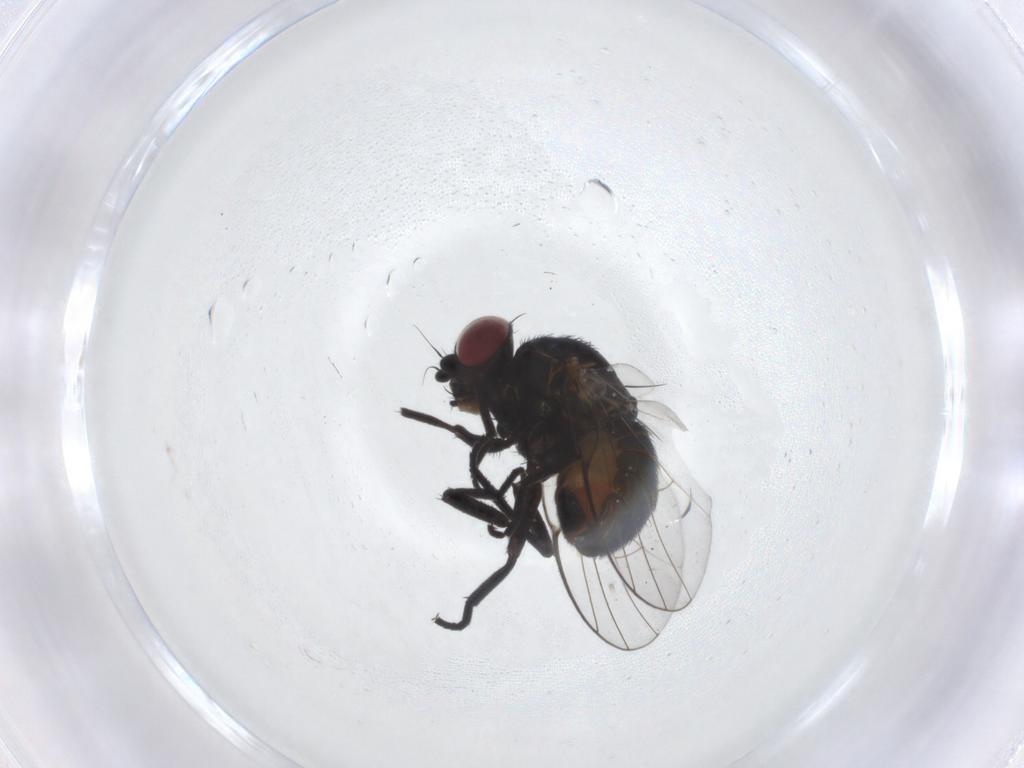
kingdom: Animalia
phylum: Arthropoda
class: Insecta
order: Diptera
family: Agromyzidae
